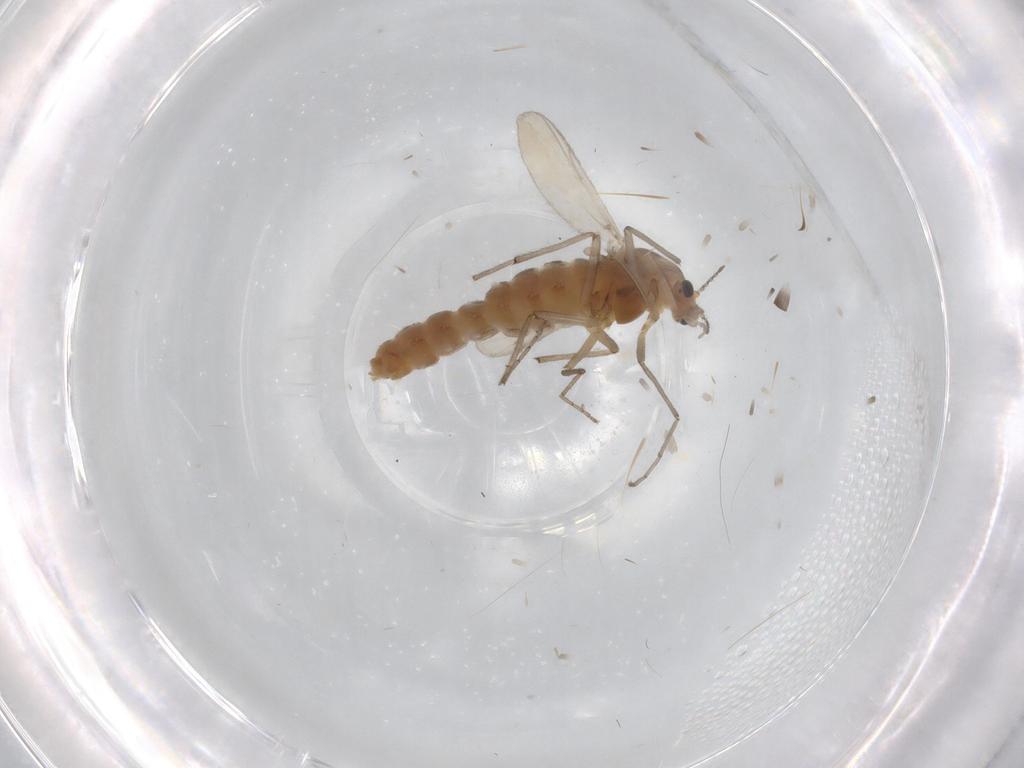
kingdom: Animalia
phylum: Arthropoda
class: Insecta
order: Diptera
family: Chironomidae
